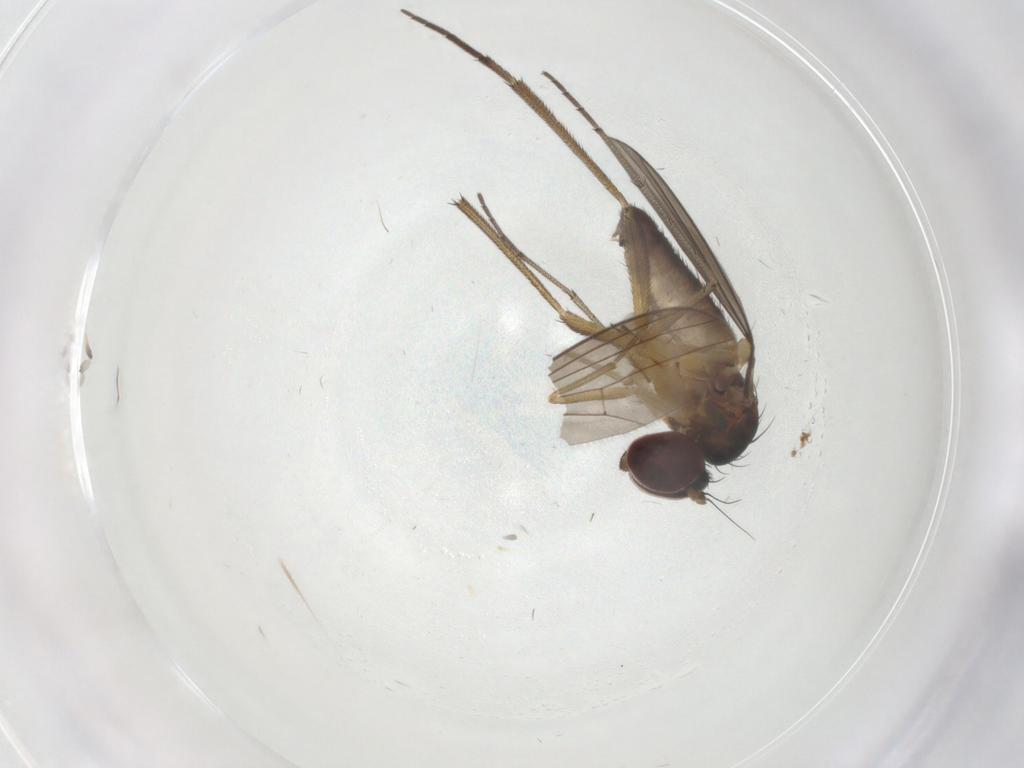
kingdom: Animalia
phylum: Arthropoda
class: Insecta
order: Diptera
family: Dolichopodidae
